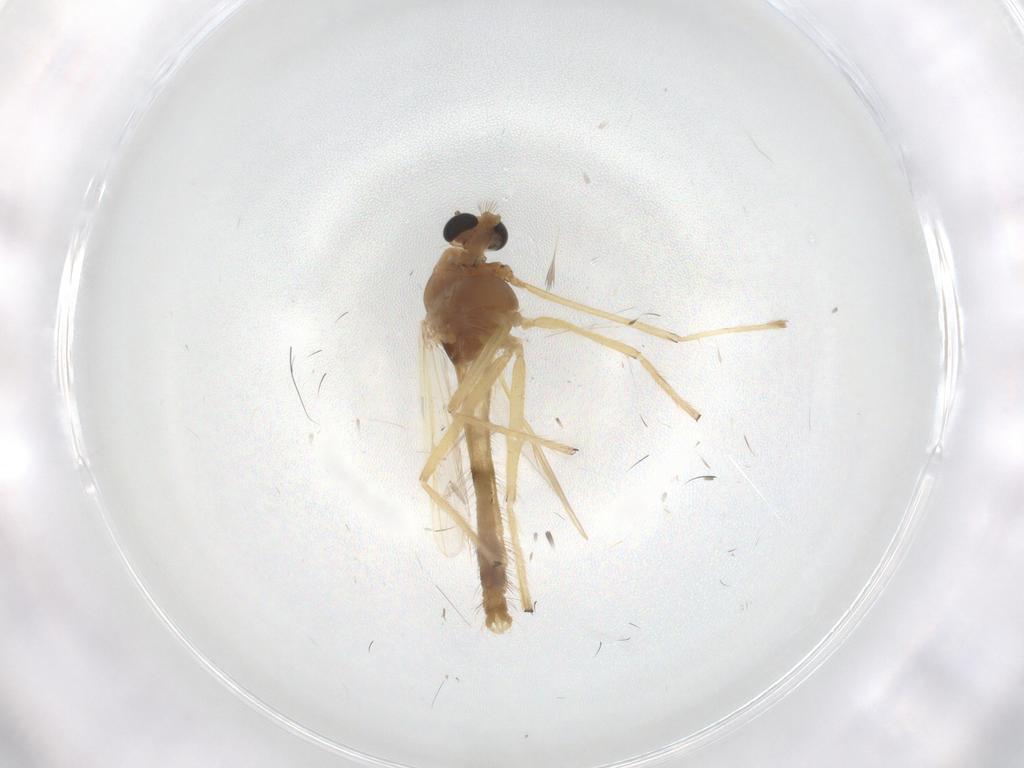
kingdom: Animalia
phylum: Arthropoda
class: Insecta
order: Diptera
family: Chironomidae
